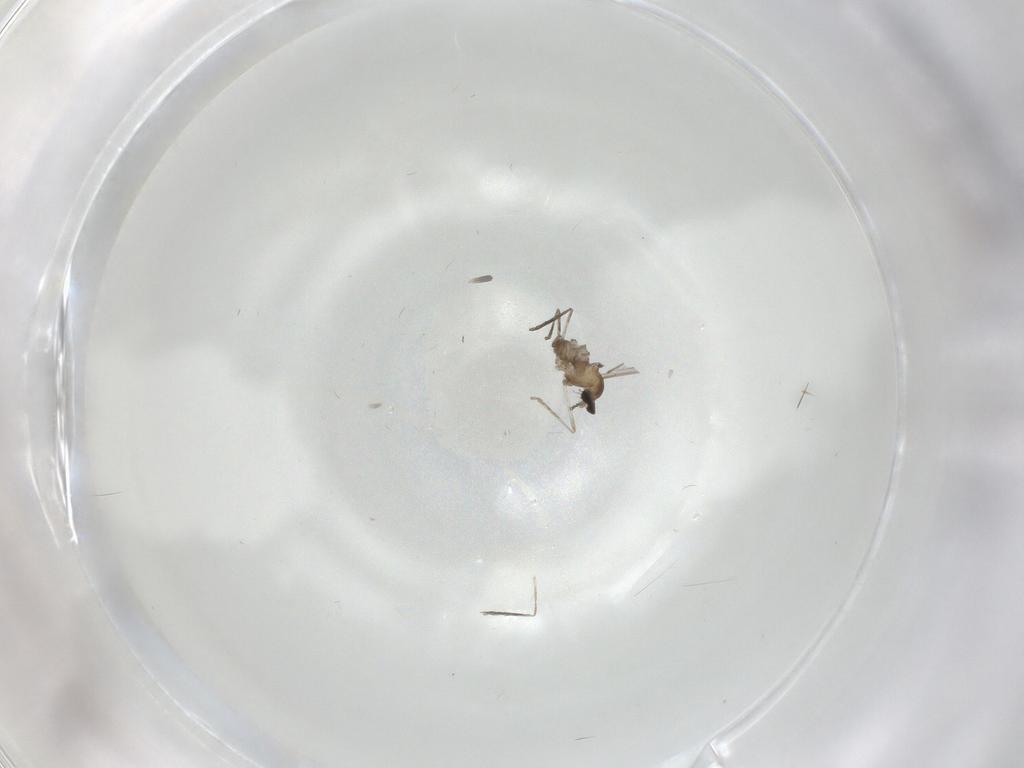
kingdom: Animalia
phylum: Arthropoda
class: Insecta
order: Diptera
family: Cecidomyiidae
